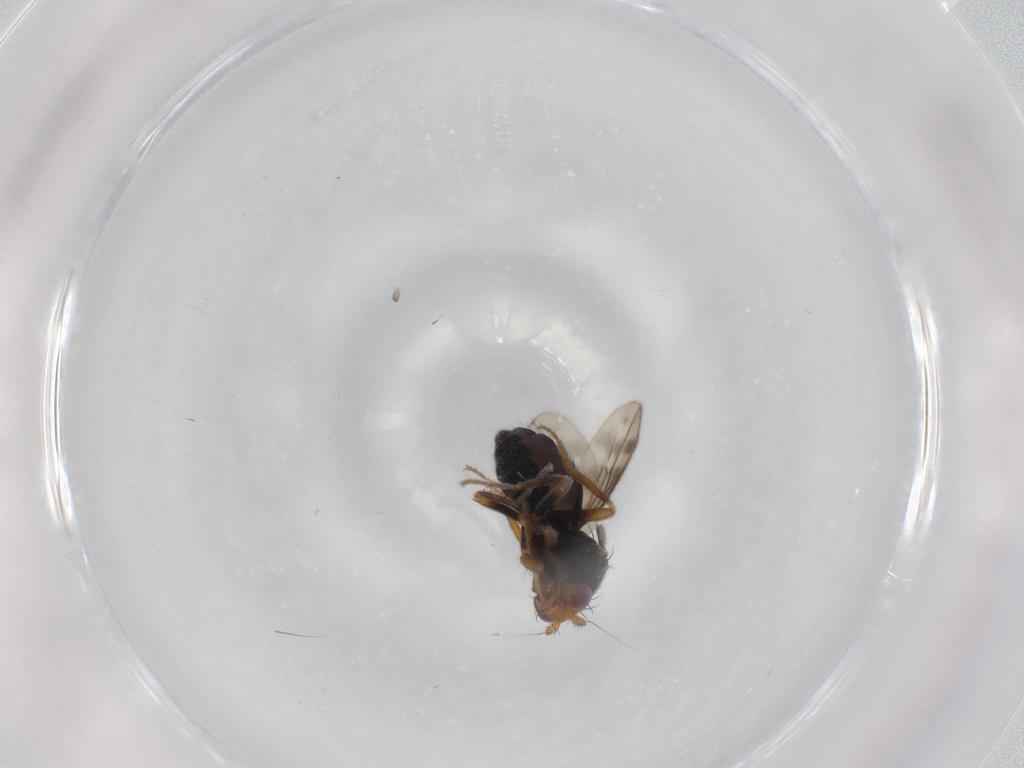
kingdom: Animalia
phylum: Arthropoda
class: Insecta
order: Diptera
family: Sphaeroceridae
